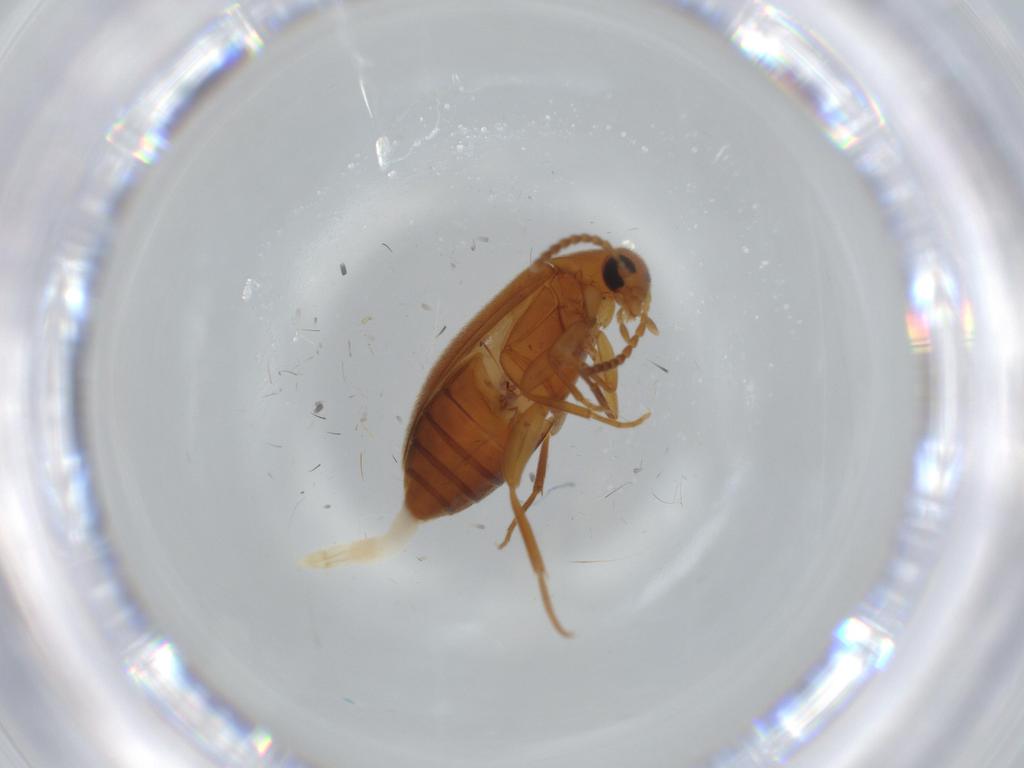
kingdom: Animalia
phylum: Arthropoda
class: Insecta
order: Coleoptera
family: Scraptiidae
